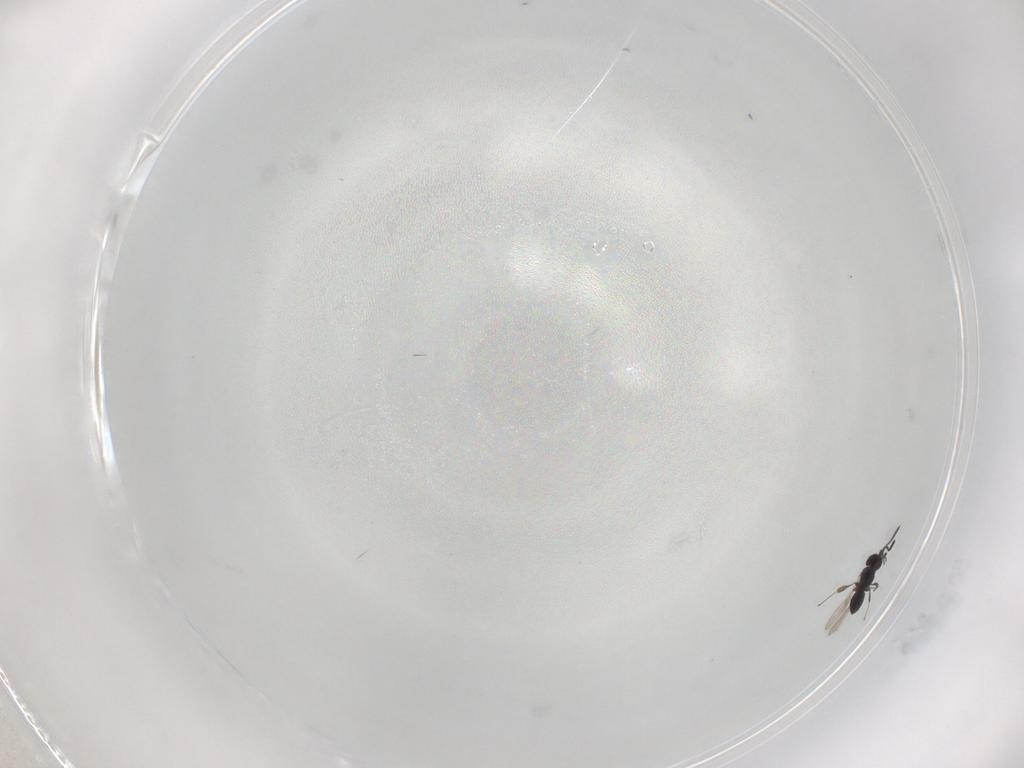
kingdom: Animalia
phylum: Arthropoda
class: Insecta
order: Hymenoptera
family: Scelionidae
